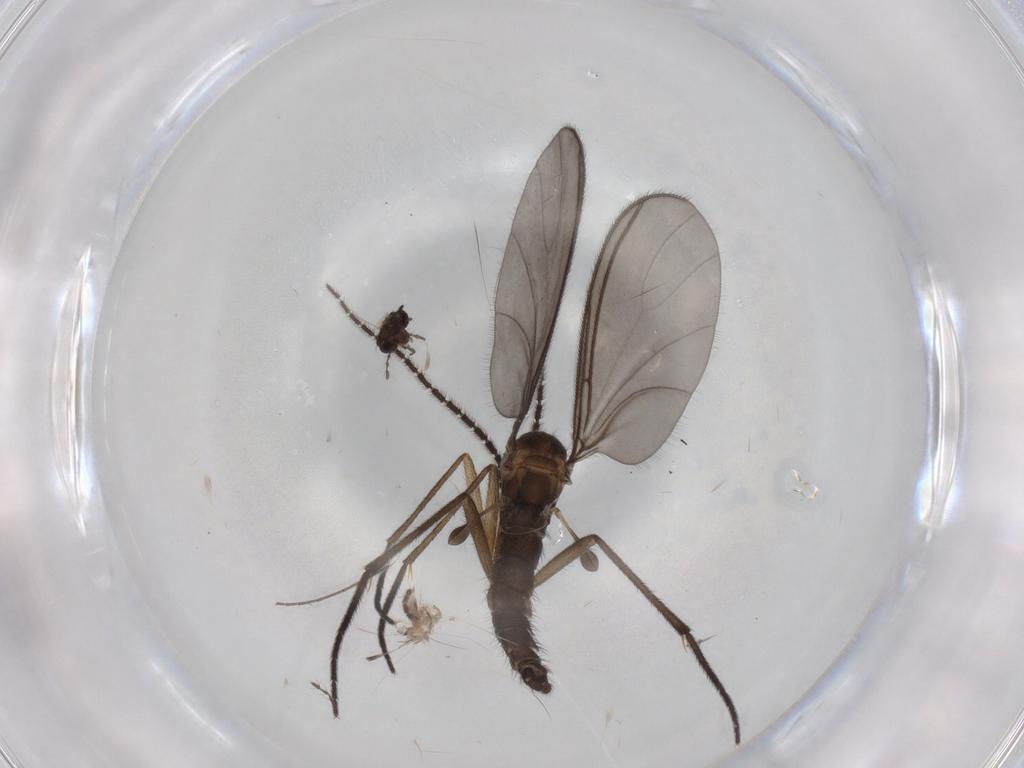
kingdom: Animalia
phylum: Arthropoda
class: Insecta
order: Diptera
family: Sciaridae
